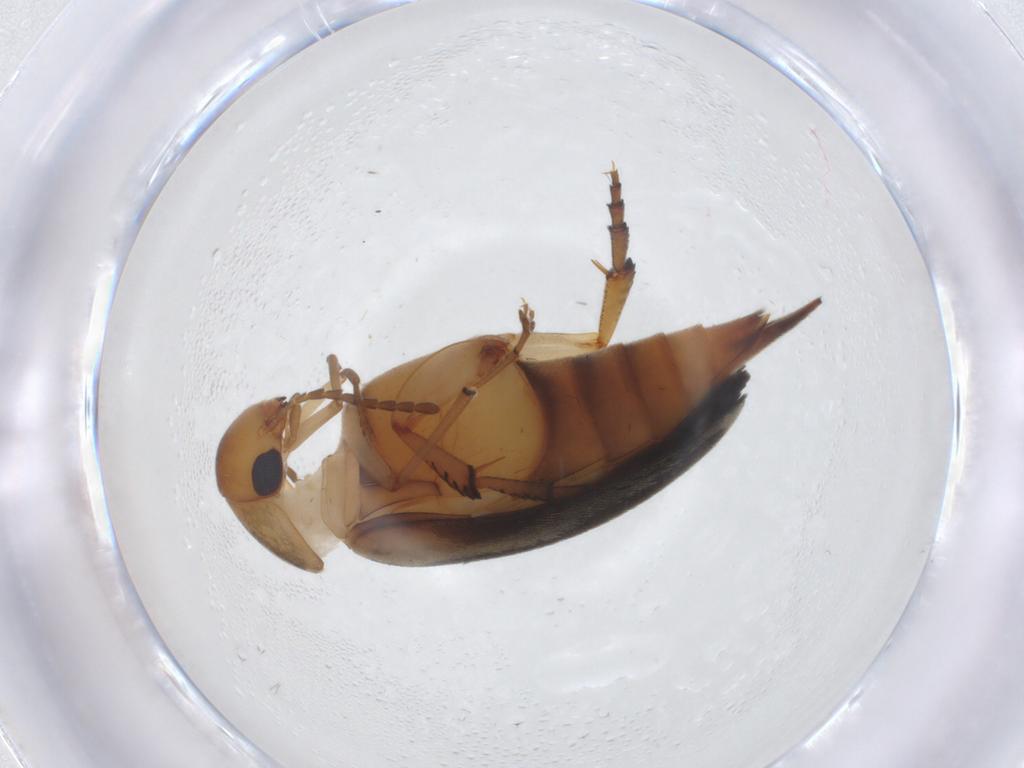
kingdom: Animalia
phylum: Arthropoda
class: Insecta
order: Coleoptera
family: Mordellidae
